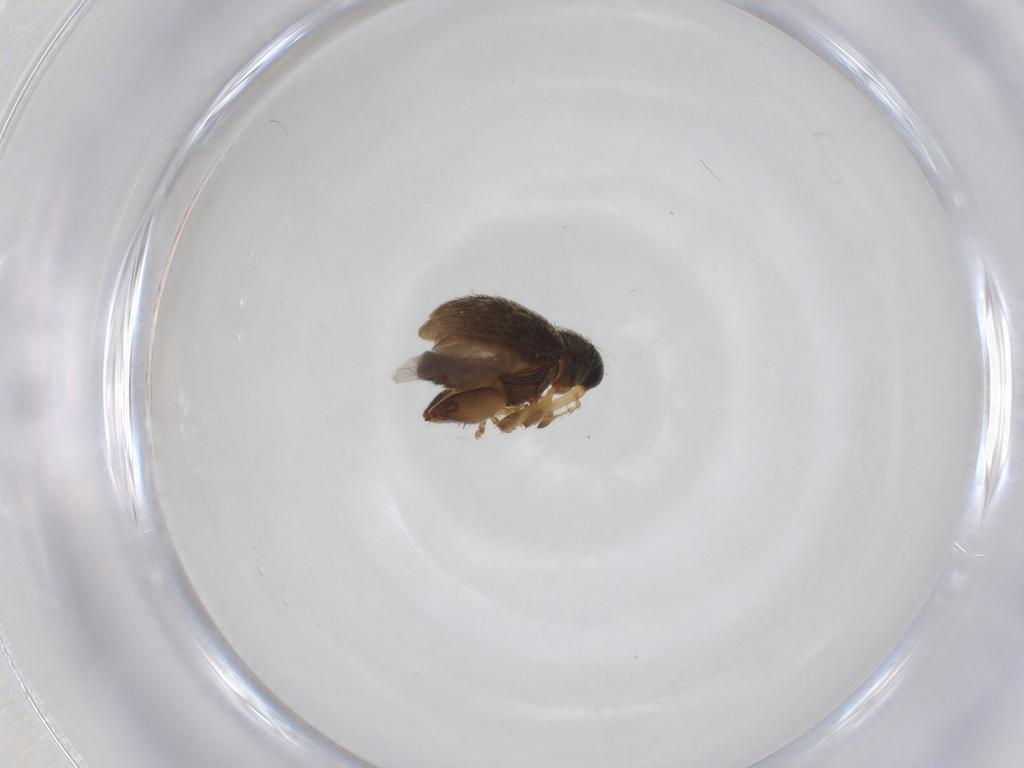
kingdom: Animalia
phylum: Arthropoda
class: Insecta
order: Coleoptera
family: Curculionidae
